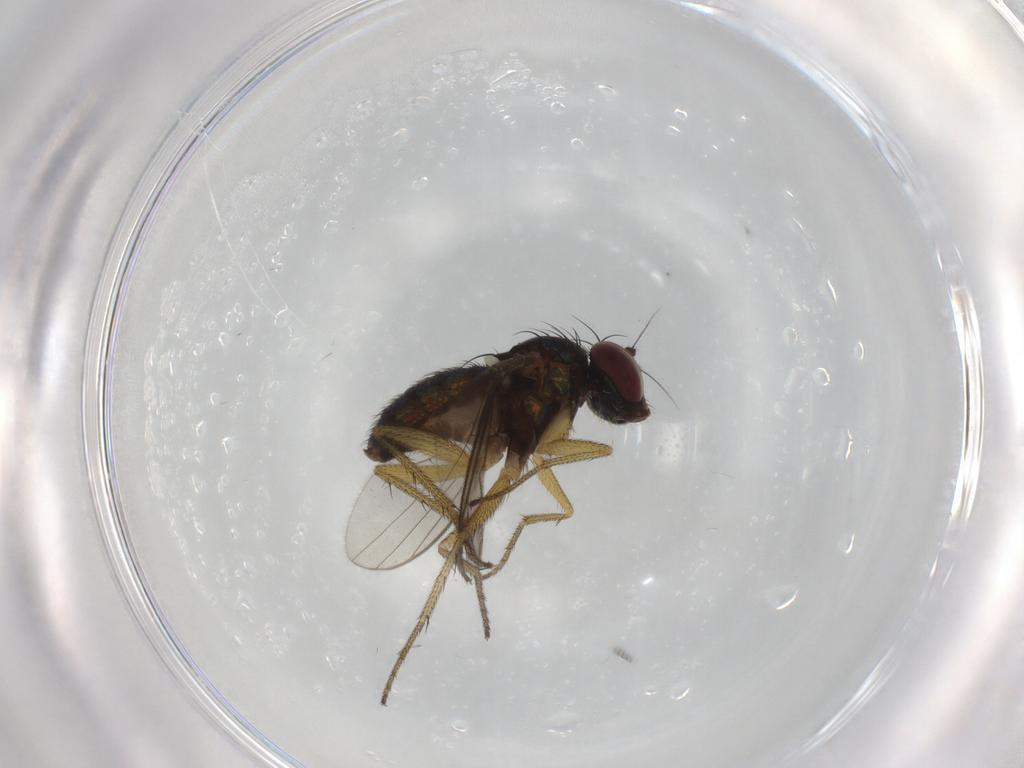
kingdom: Animalia
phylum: Arthropoda
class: Insecta
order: Diptera
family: Dolichopodidae
